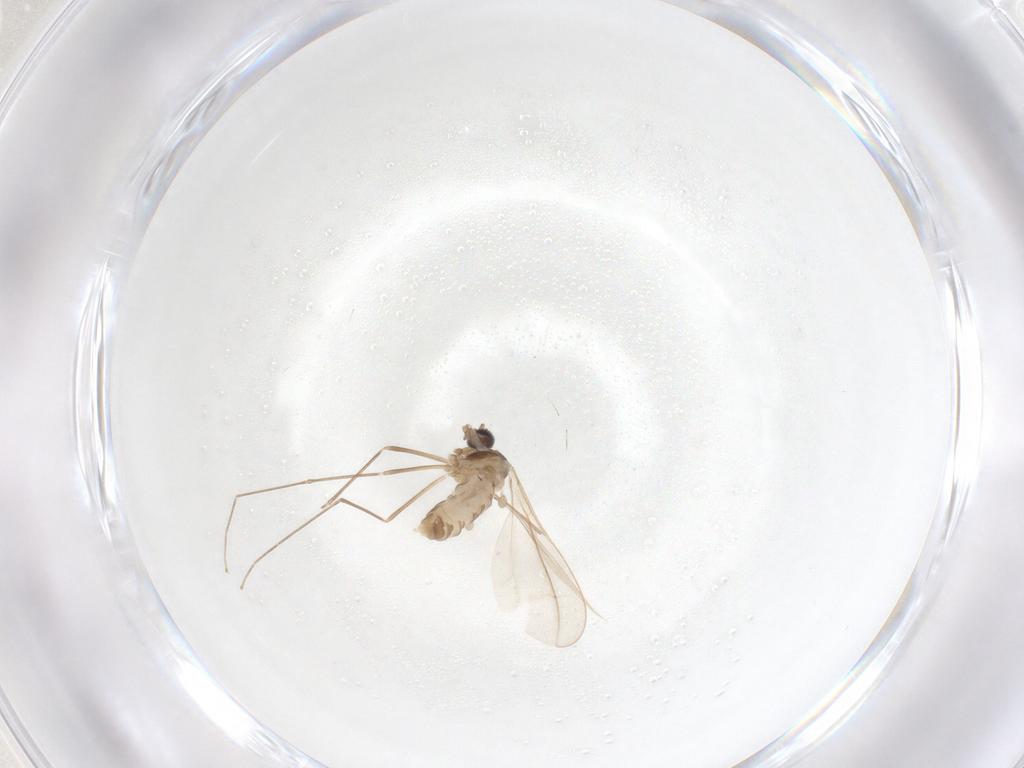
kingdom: Animalia
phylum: Arthropoda
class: Insecta
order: Diptera
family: Cecidomyiidae
